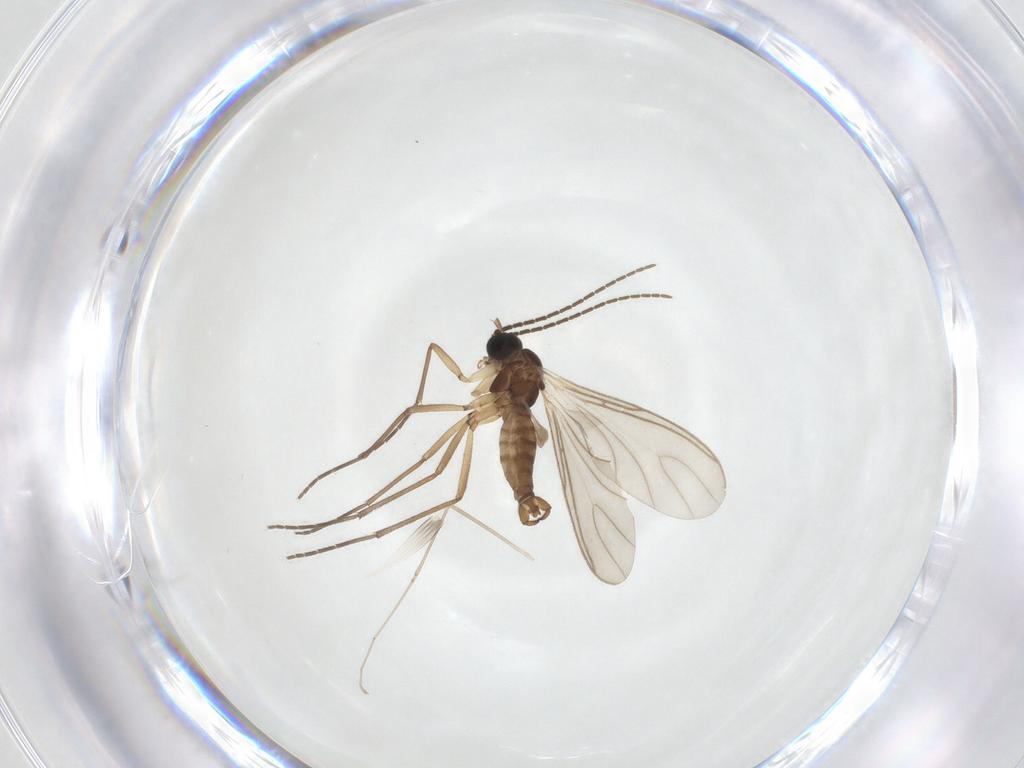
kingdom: Animalia
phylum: Arthropoda
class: Insecta
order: Diptera
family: Sciaridae
